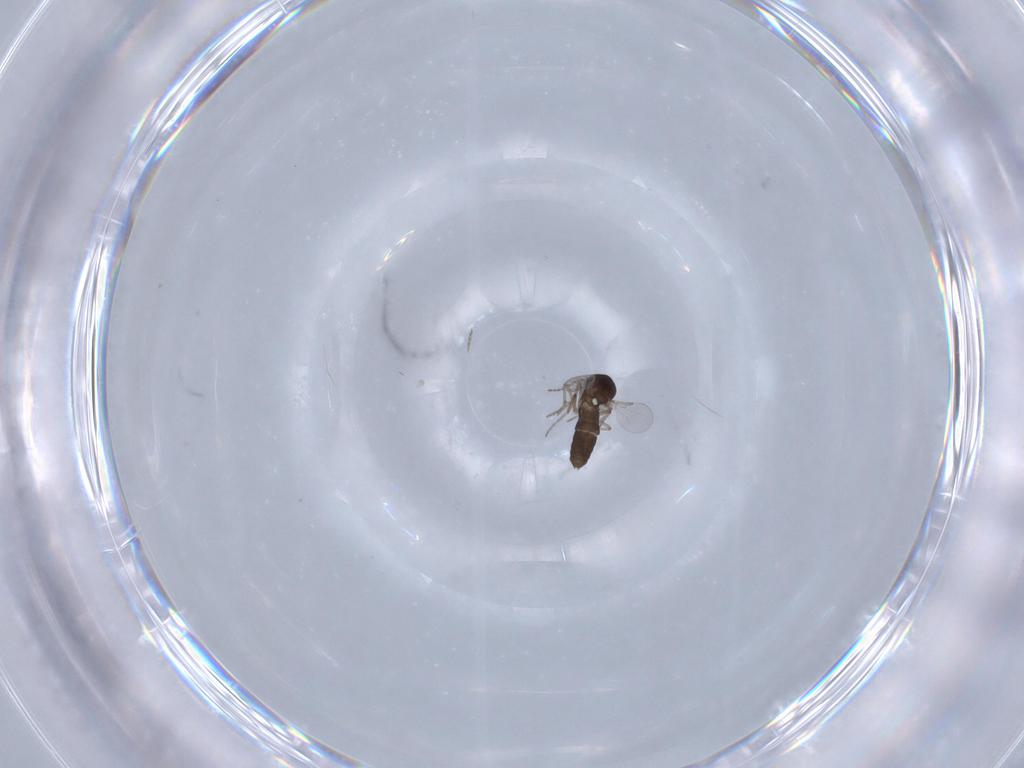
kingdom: Animalia
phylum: Arthropoda
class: Insecta
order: Diptera
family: Ceratopogonidae
